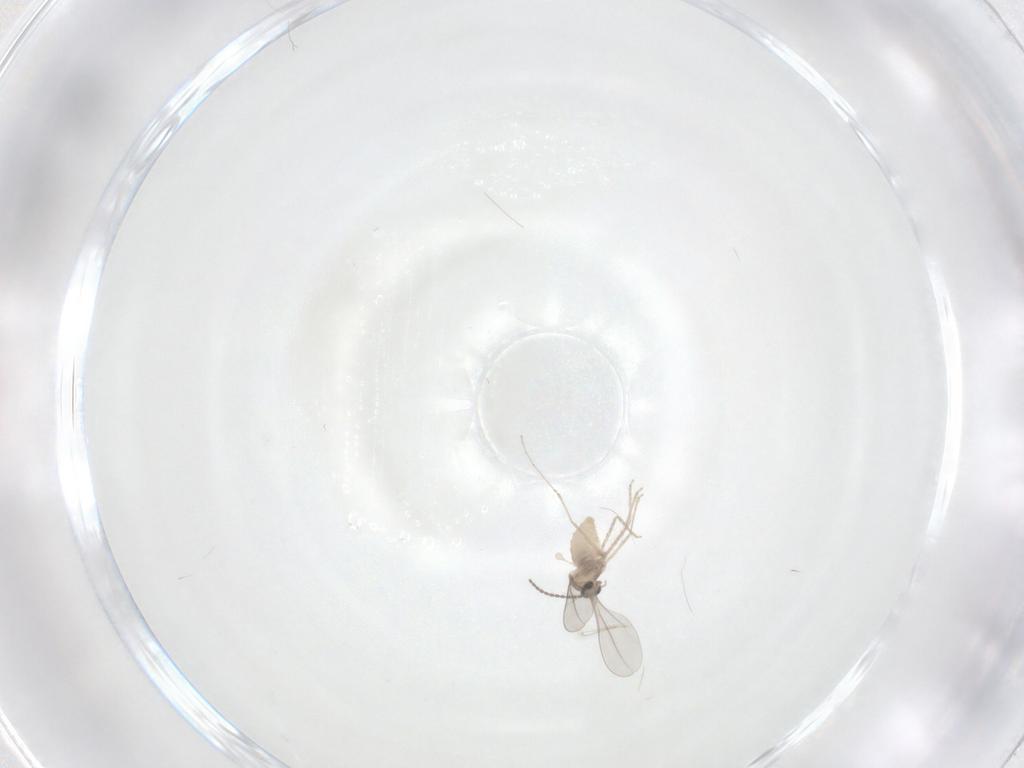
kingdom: Animalia
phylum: Arthropoda
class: Insecta
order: Diptera
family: Cecidomyiidae
